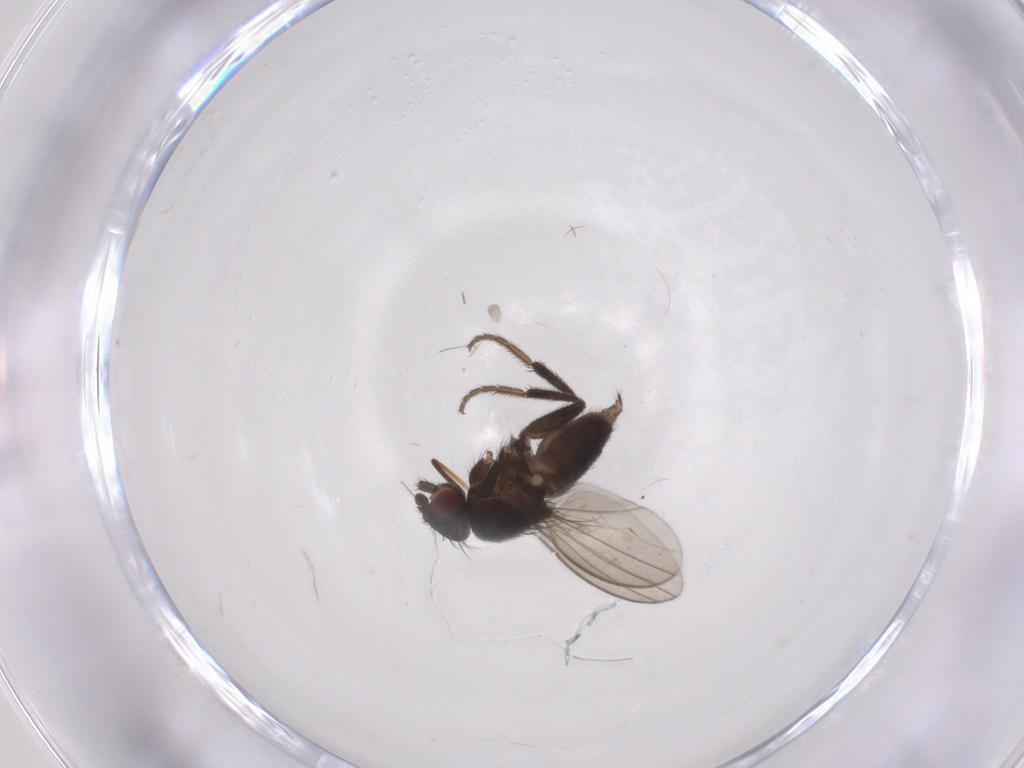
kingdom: Animalia
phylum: Arthropoda
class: Insecta
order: Diptera
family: Milichiidae
